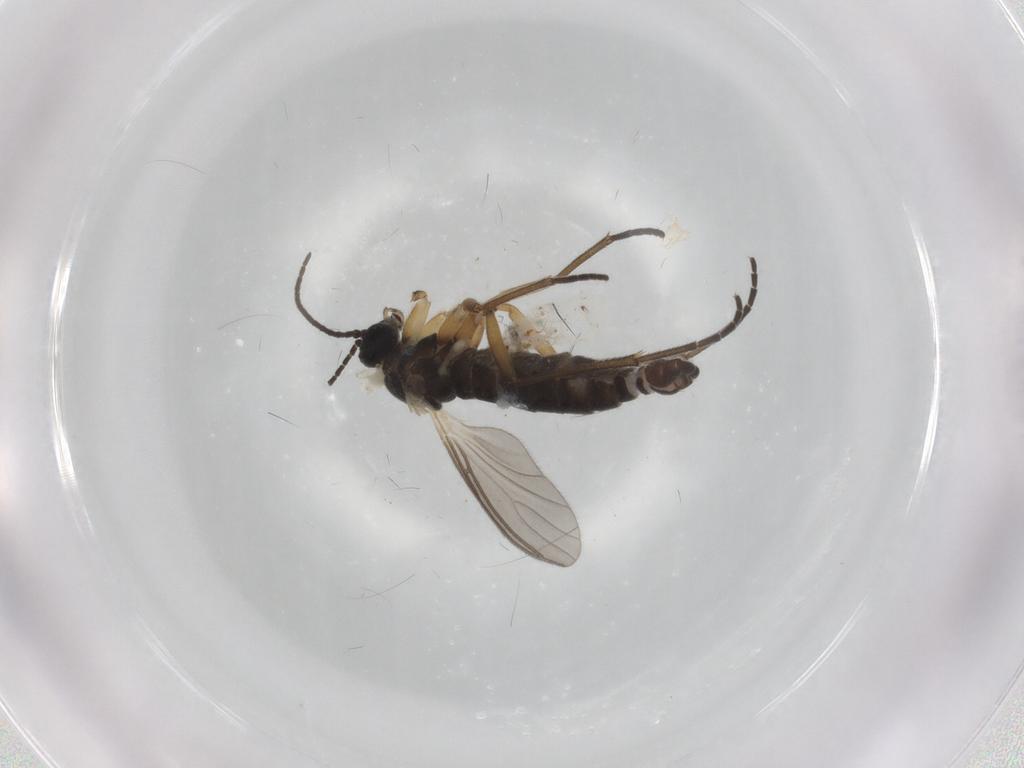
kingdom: Animalia
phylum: Arthropoda
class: Insecta
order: Diptera
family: Sciaridae
